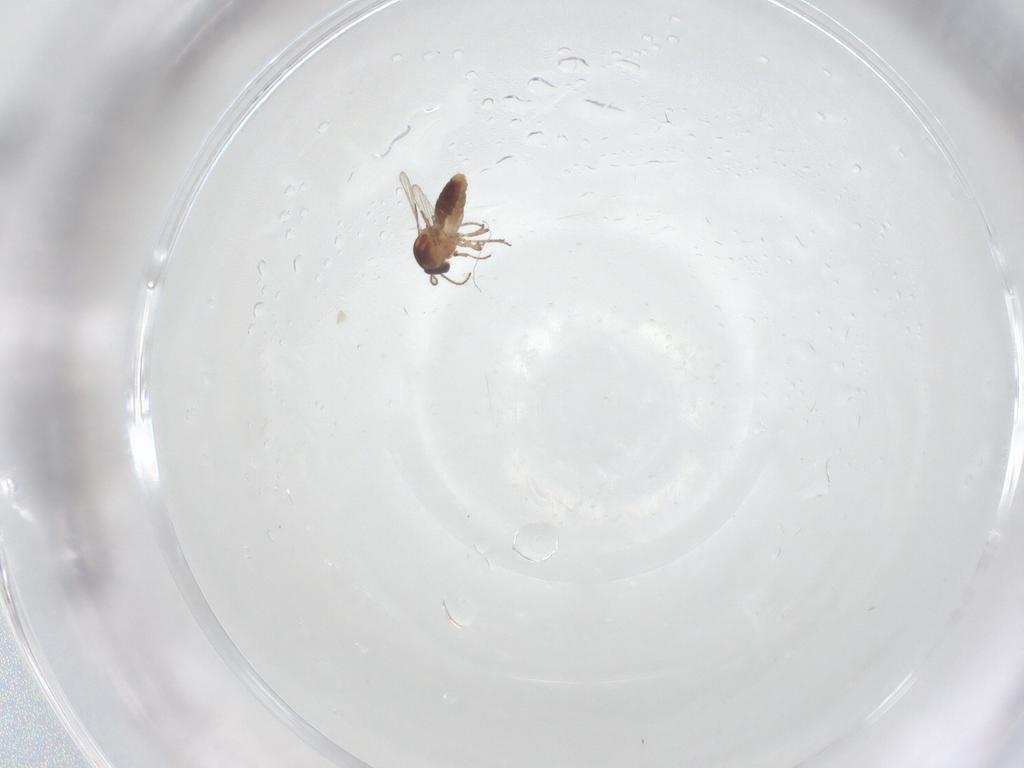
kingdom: Animalia
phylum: Arthropoda
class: Insecta
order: Diptera
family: Ceratopogonidae
